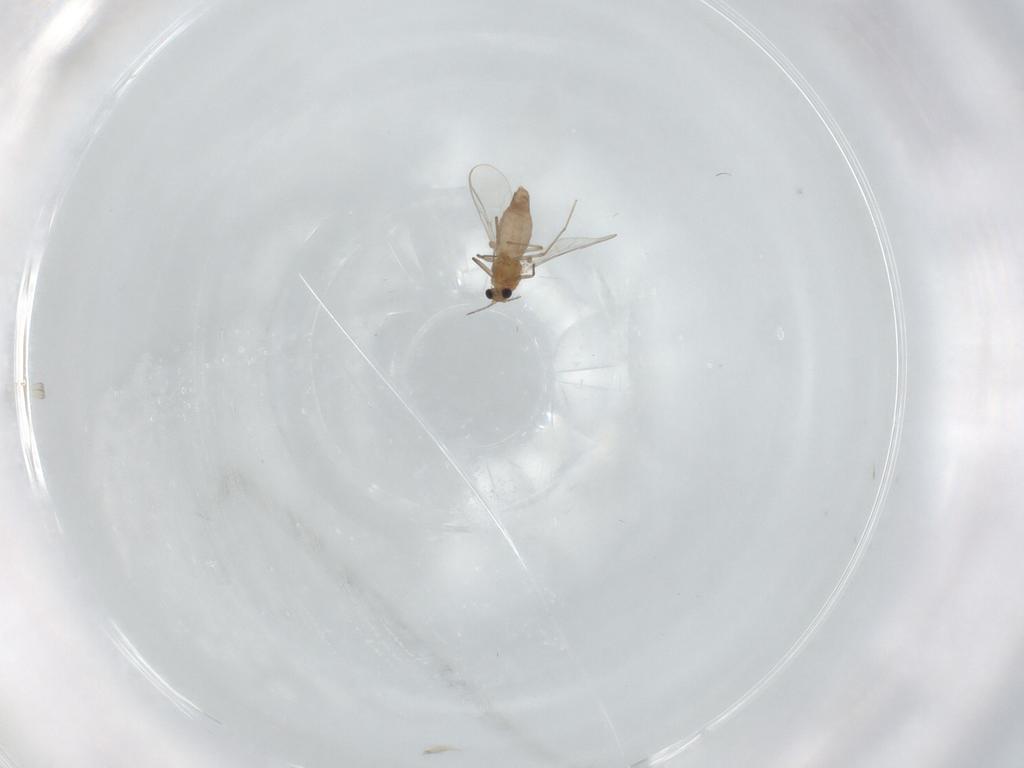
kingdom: Animalia
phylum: Arthropoda
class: Insecta
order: Diptera
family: Chironomidae
